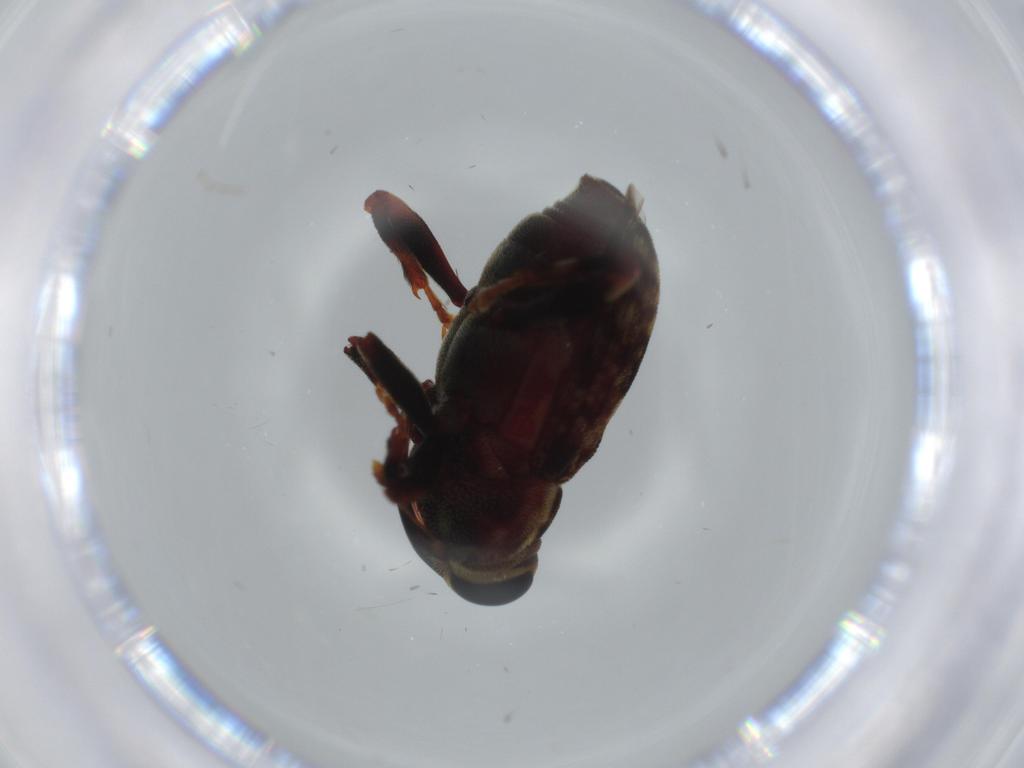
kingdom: Animalia
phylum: Arthropoda
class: Insecta
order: Coleoptera
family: Curculionidae
